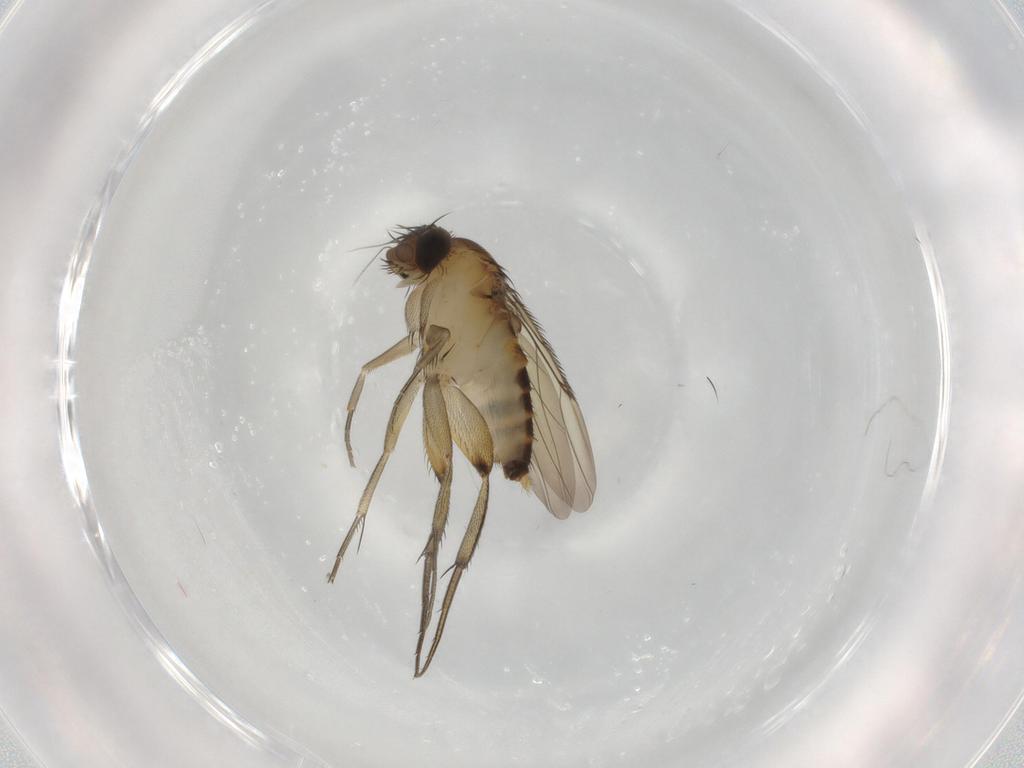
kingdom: Animalia
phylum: Arthropoda
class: Insecta
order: Diptera
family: Phoridae
